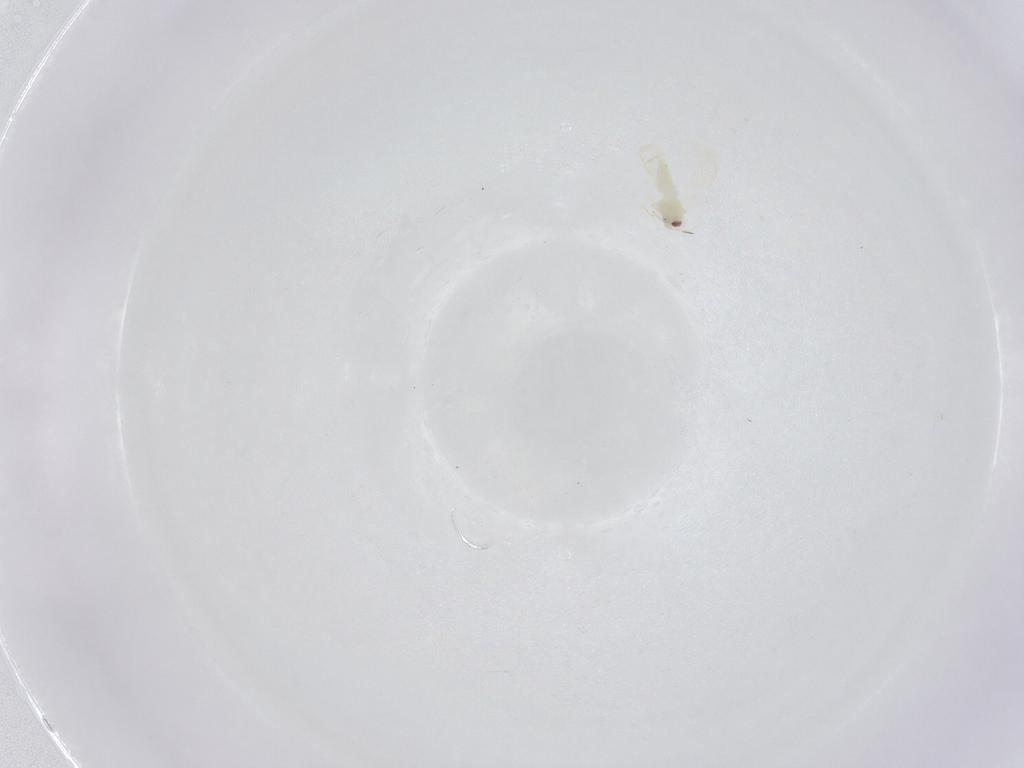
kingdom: Animalia
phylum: Arthropoda
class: Insecta
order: Hemiptera
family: Aleyrodidae
